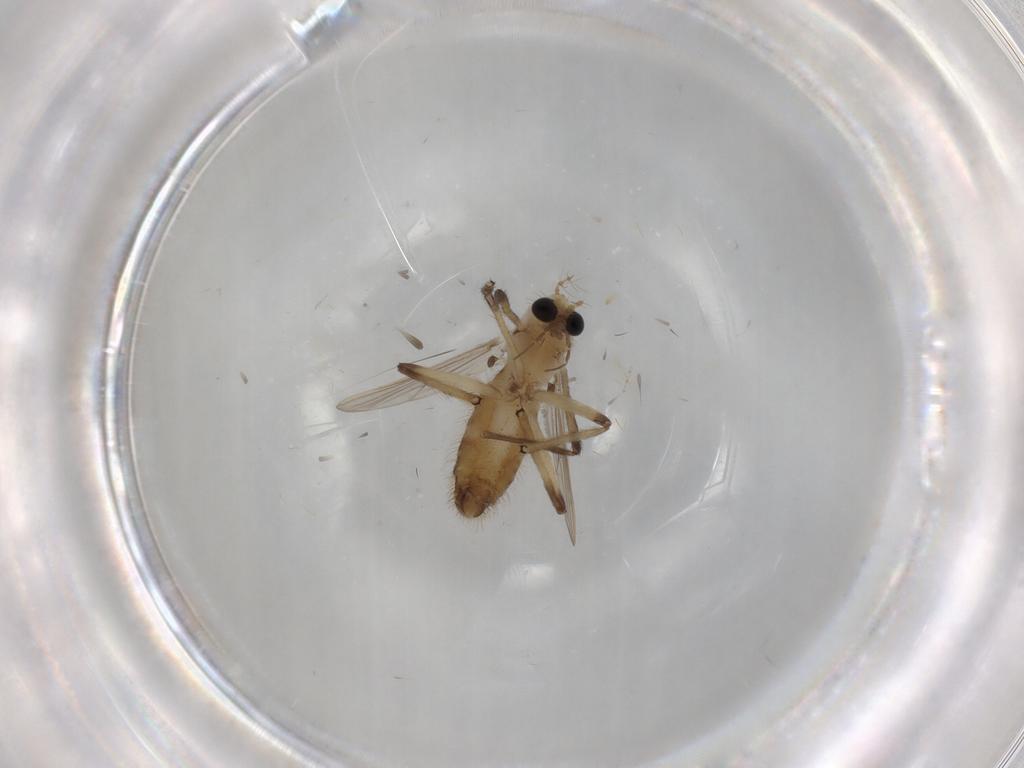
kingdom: Animalia
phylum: Arthropoda
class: Insecta
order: Diptera
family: Chironomidae
